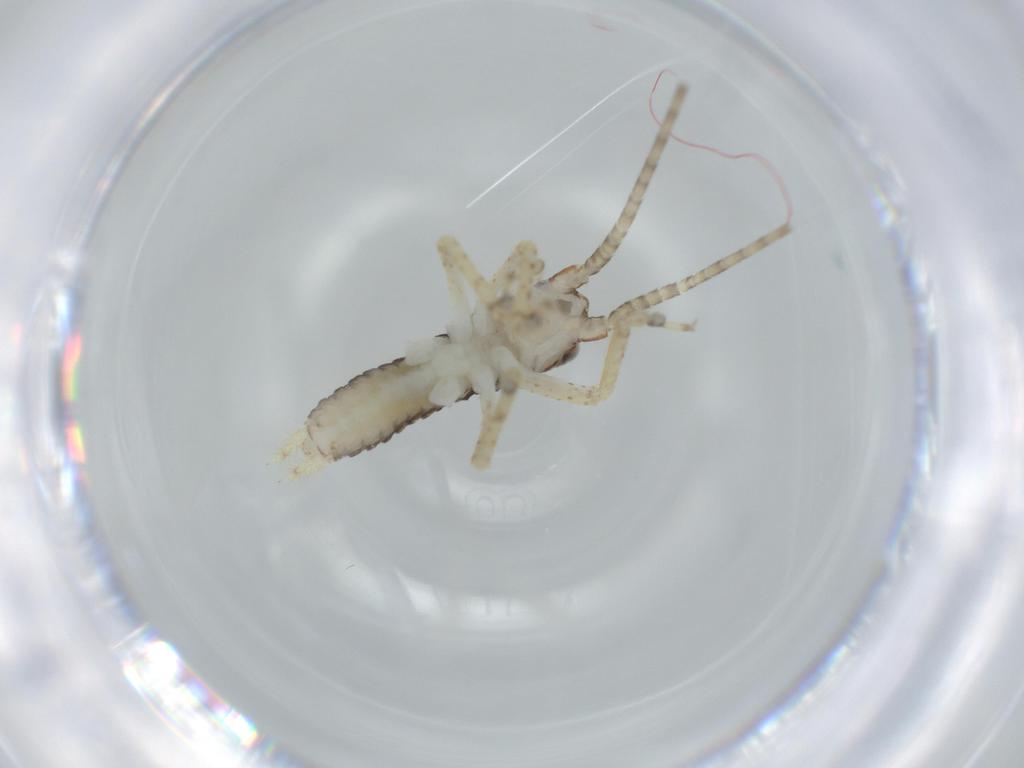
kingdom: Animalia
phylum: Arthropoda
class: Insecta
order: Orthoptera
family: Gryllidae
